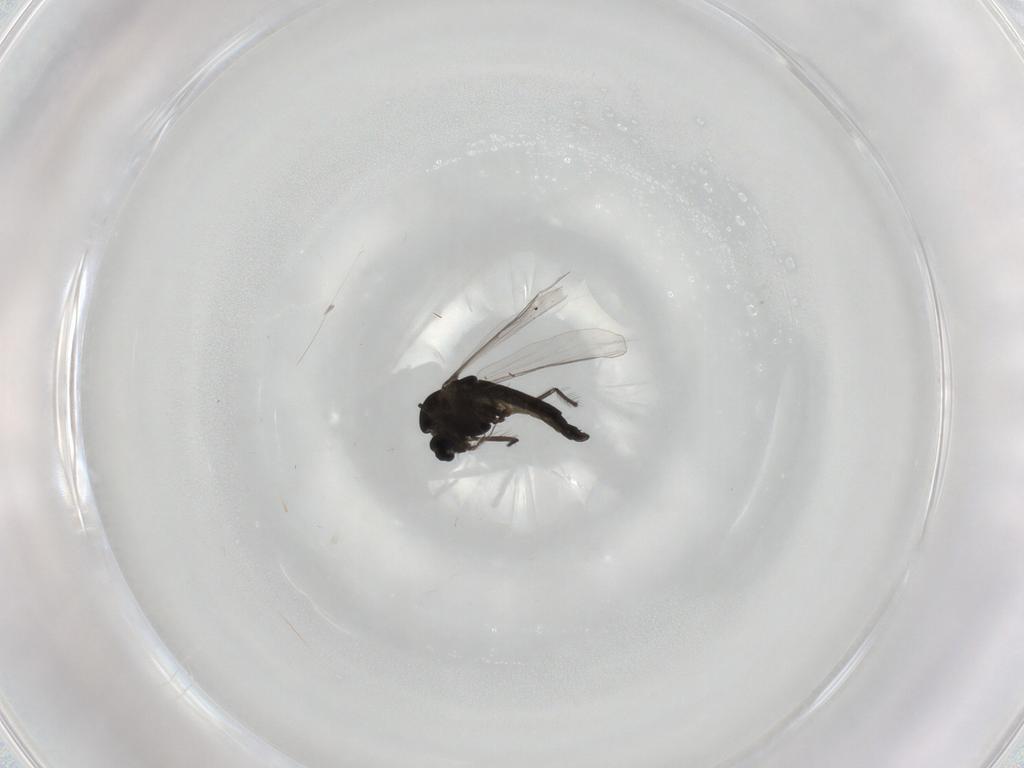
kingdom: Animalia
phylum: Arthropoda
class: Insecta
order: Diptera
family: Chironomidae
